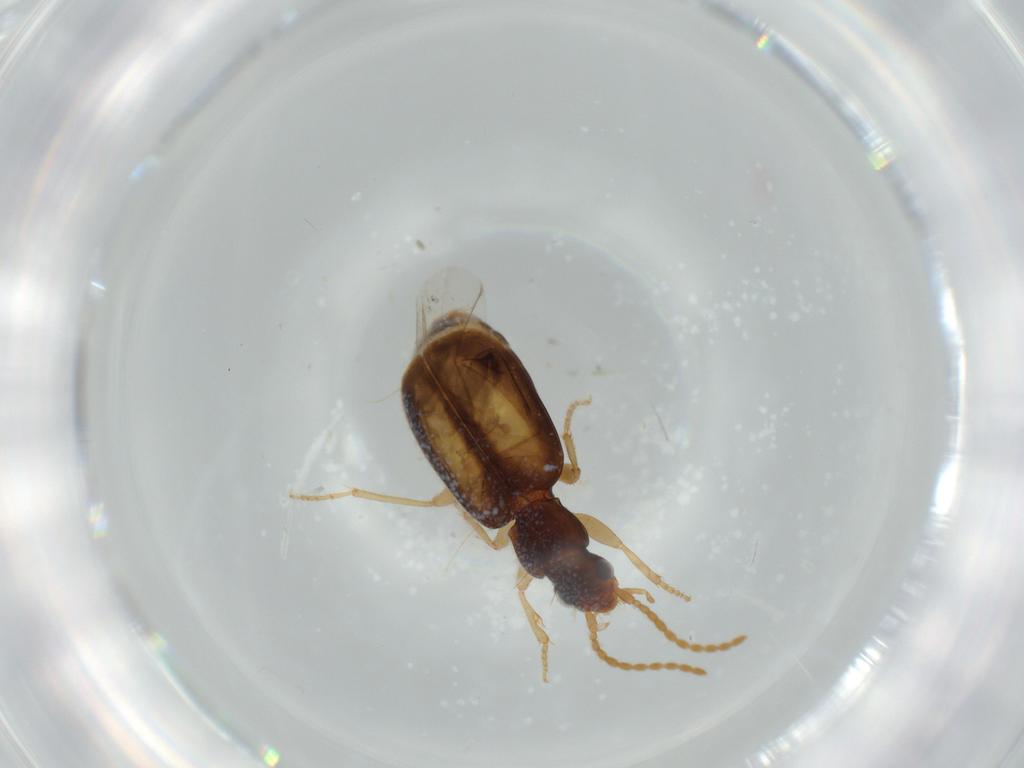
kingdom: Animalia
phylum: Arthropoda
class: Insecta
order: Coleoptera
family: Carabidae
